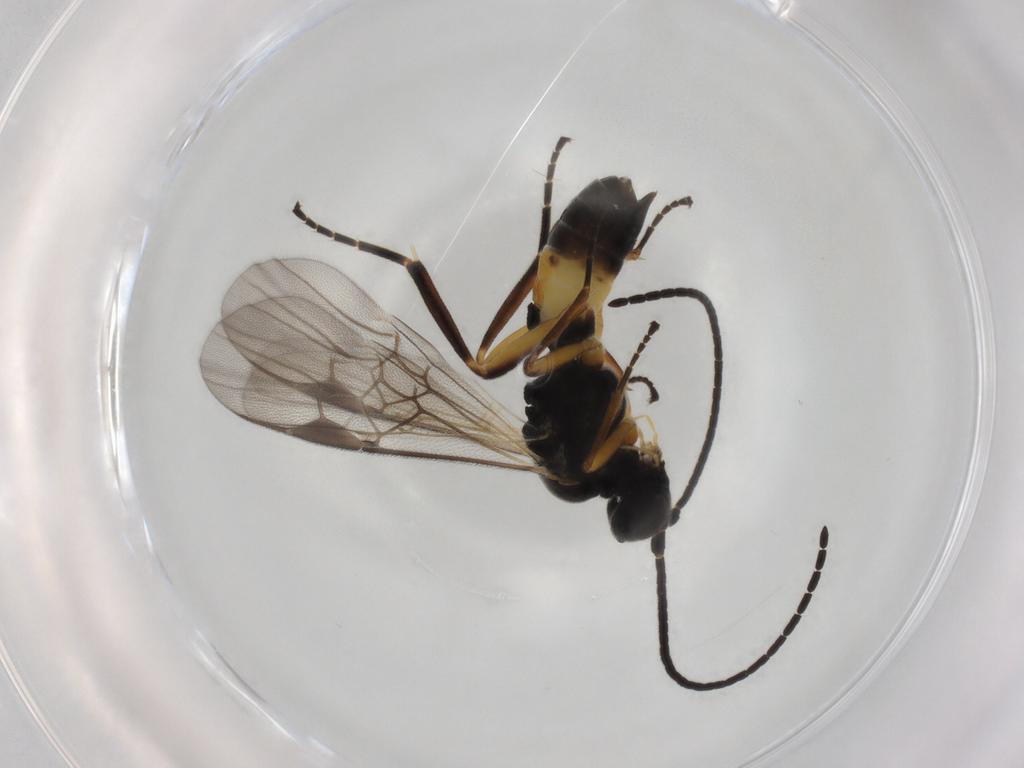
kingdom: Animalia
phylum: Arthropoda
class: Insecta
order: Hymenoptera
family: Braconidae
